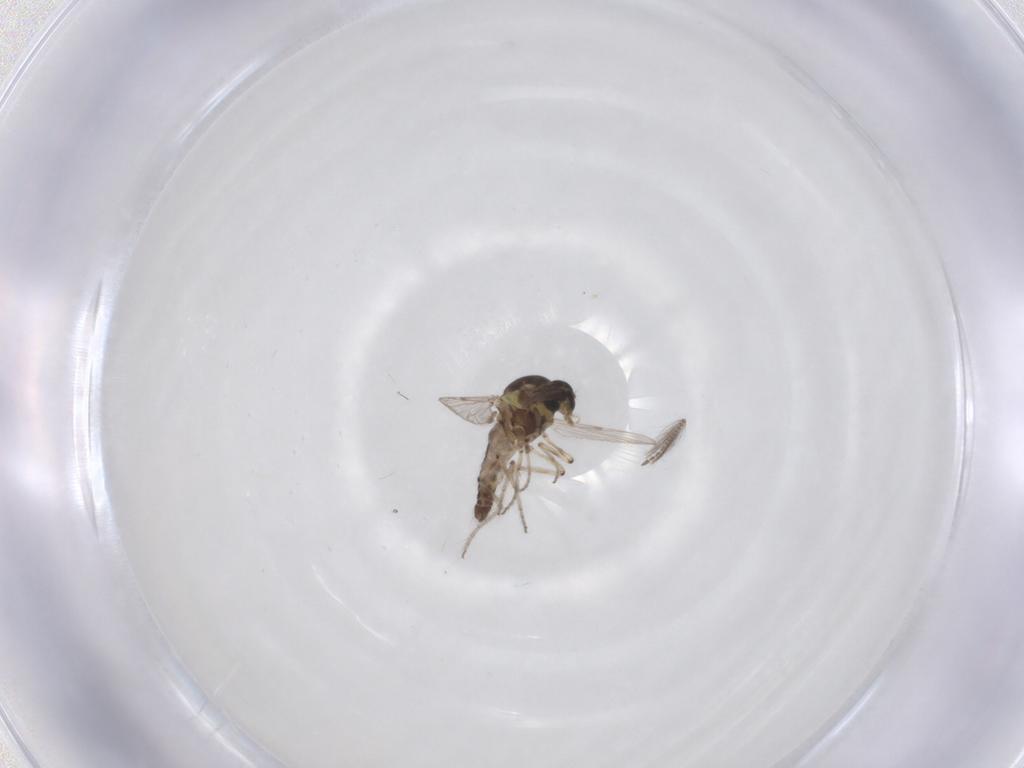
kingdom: Animalia
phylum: Arthropoda
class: Insecta
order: Diptera
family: Ceratopogonidae
